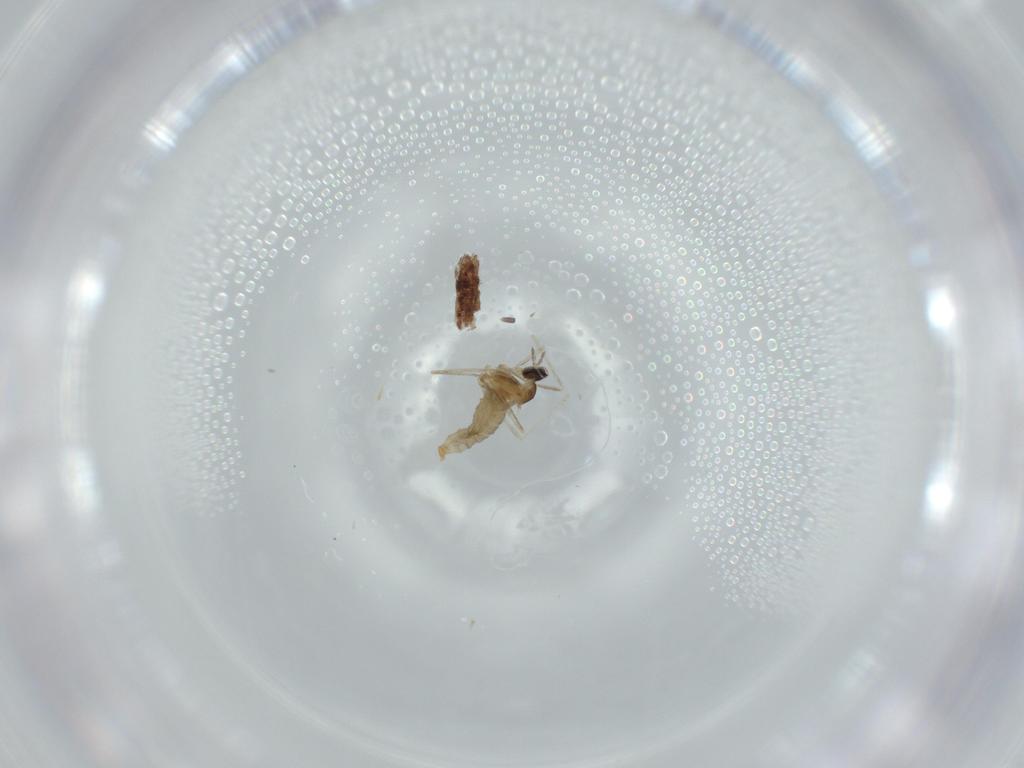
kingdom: Animalia
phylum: Arthropoda
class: Insecta
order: Diptera
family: Cecidomyiidae
